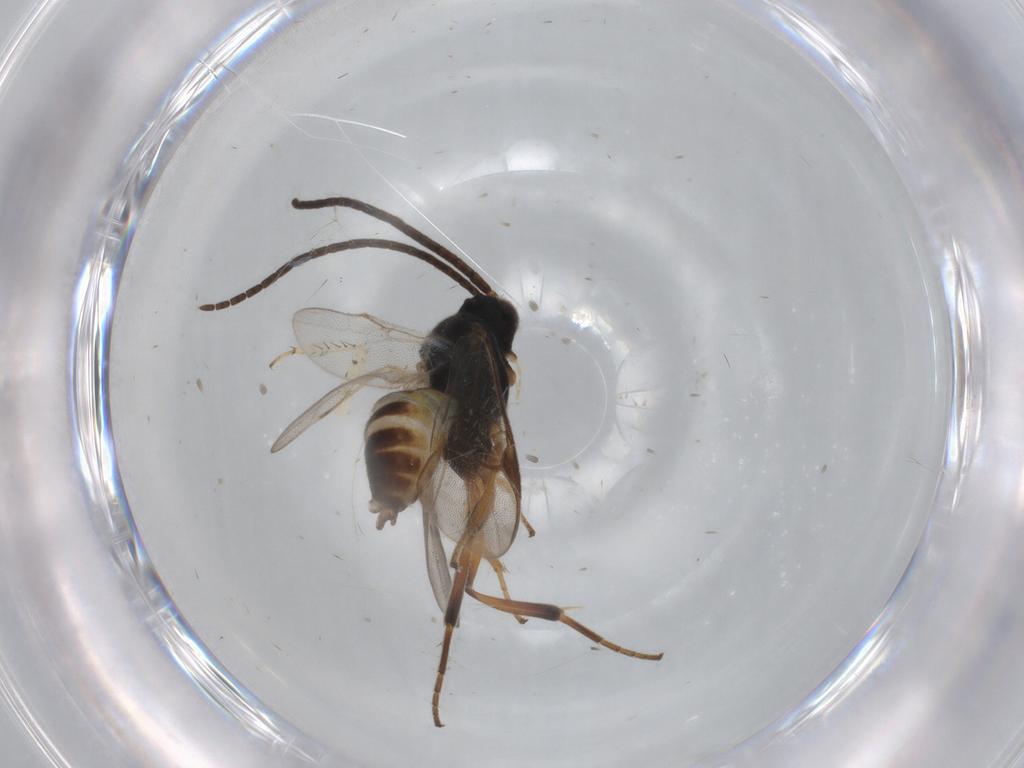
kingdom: Animalia
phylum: Arthropoda
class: Insecta
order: Hymenoptera
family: Braconidae
